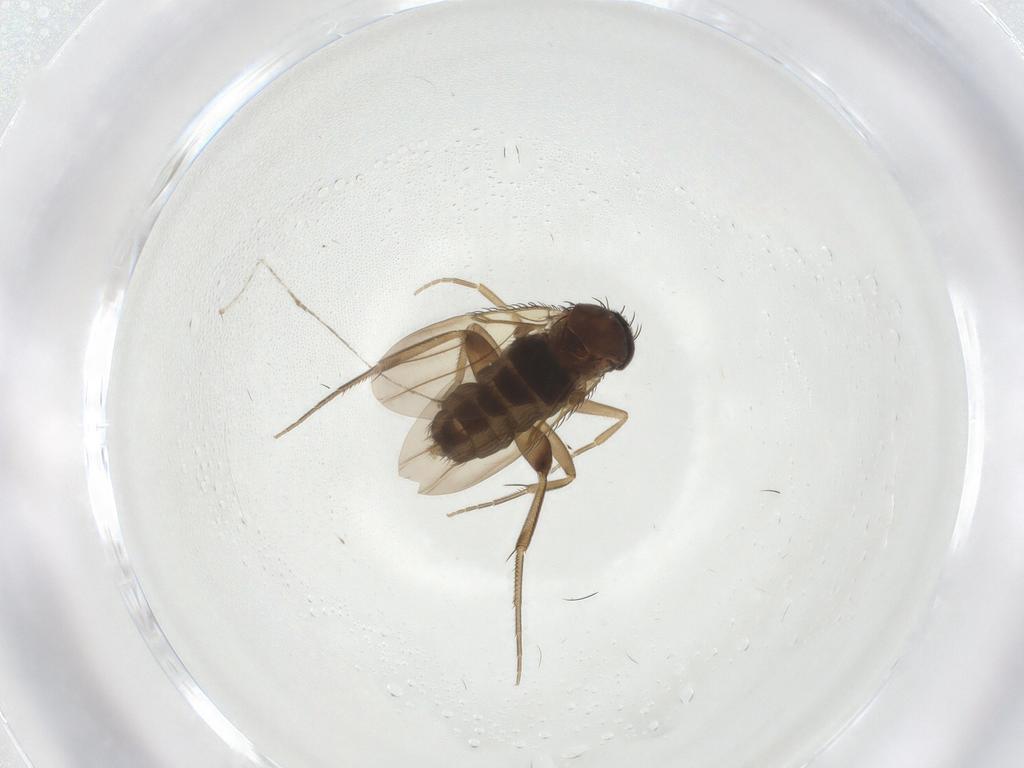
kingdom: Animalia
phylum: Arthropoda
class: Insecta
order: Diptera
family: Phoridae
